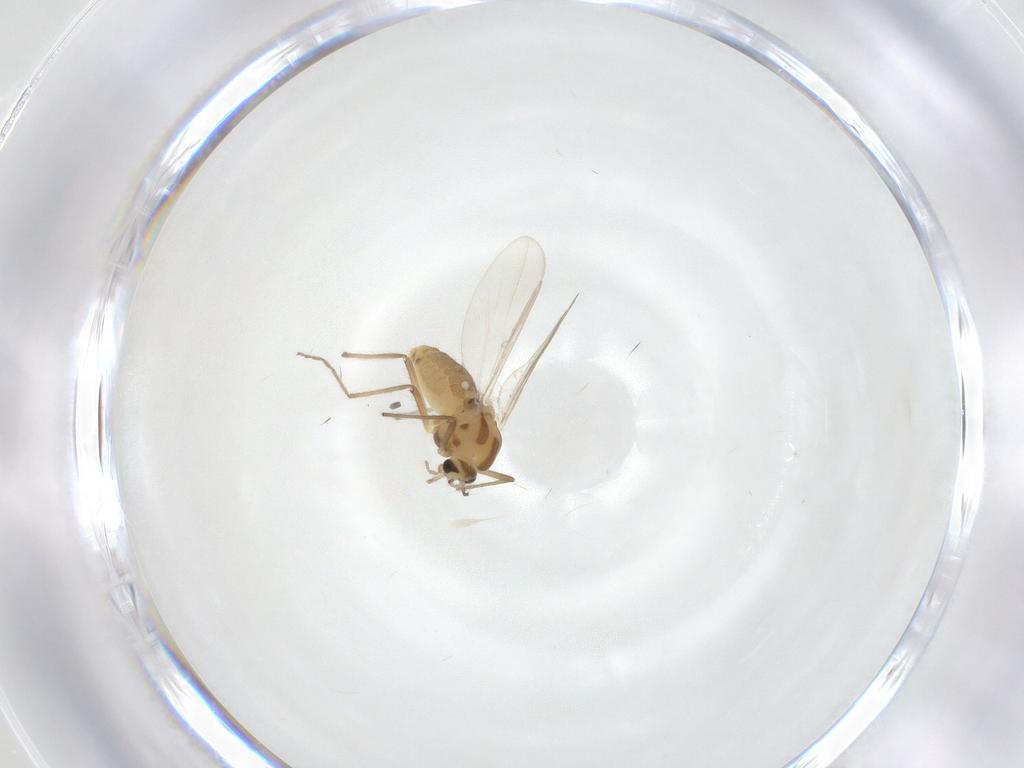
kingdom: Animalia
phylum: Arthropoda
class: Insecta
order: Diptera
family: Chironomidae
